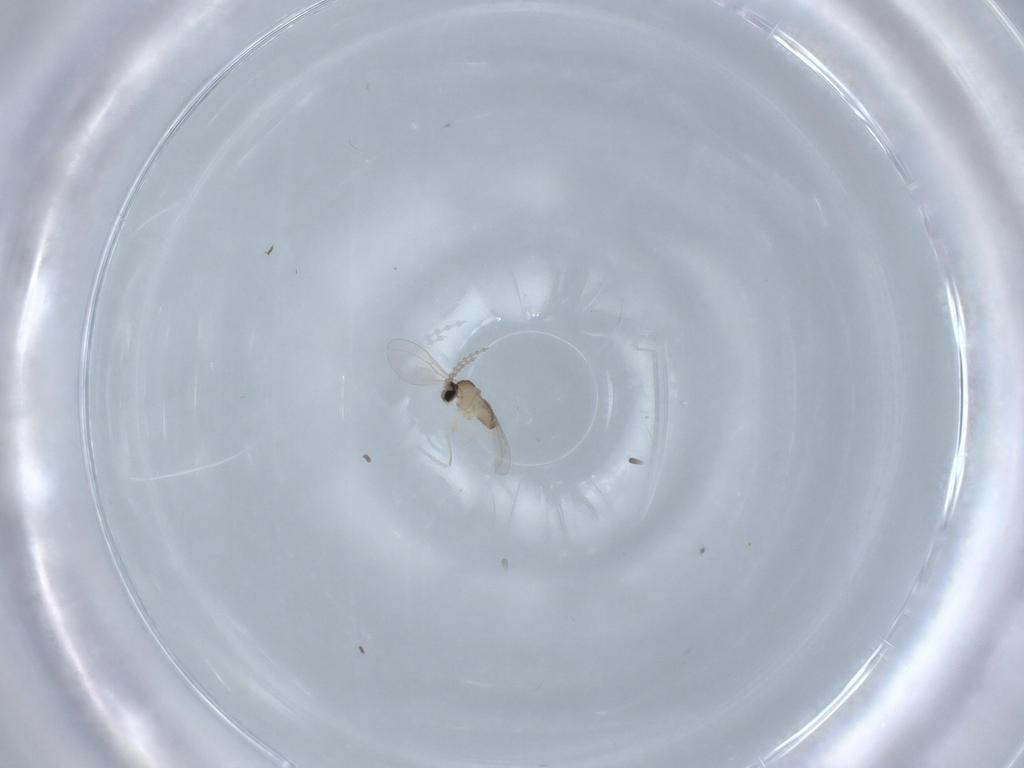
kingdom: Animalia
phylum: Arthropoda
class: Insecta
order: Diptera
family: Cecidomyiidae
